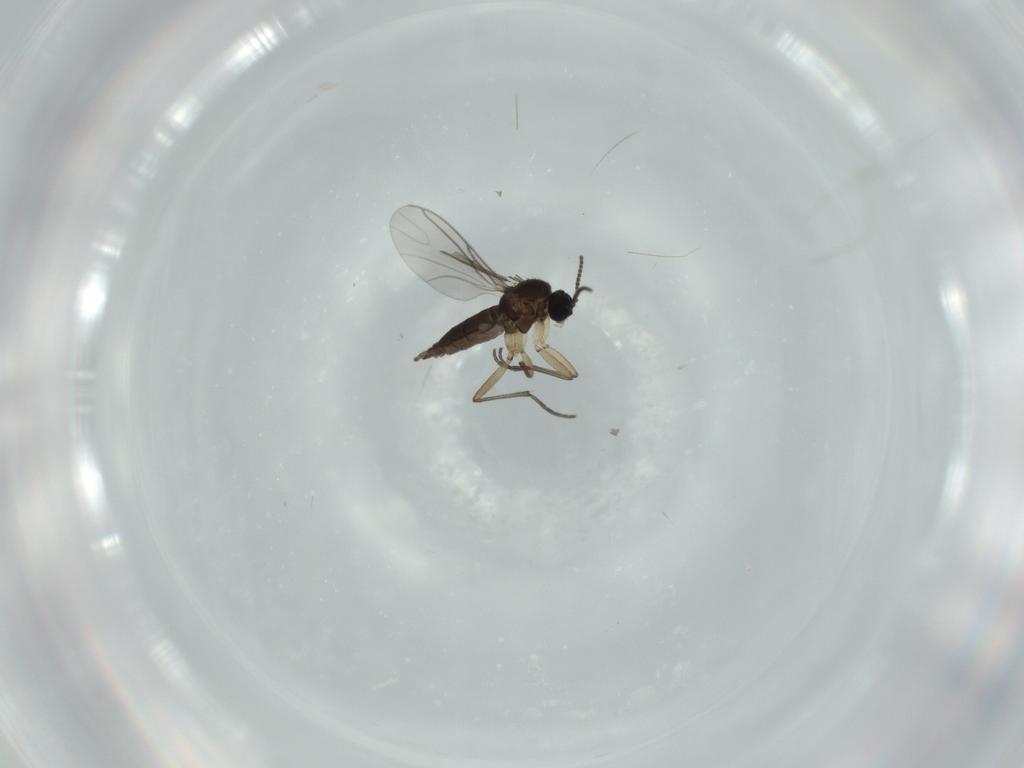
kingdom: Animalia
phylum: Arthropoda
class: Insecta
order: Diptera
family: Sciaridae
